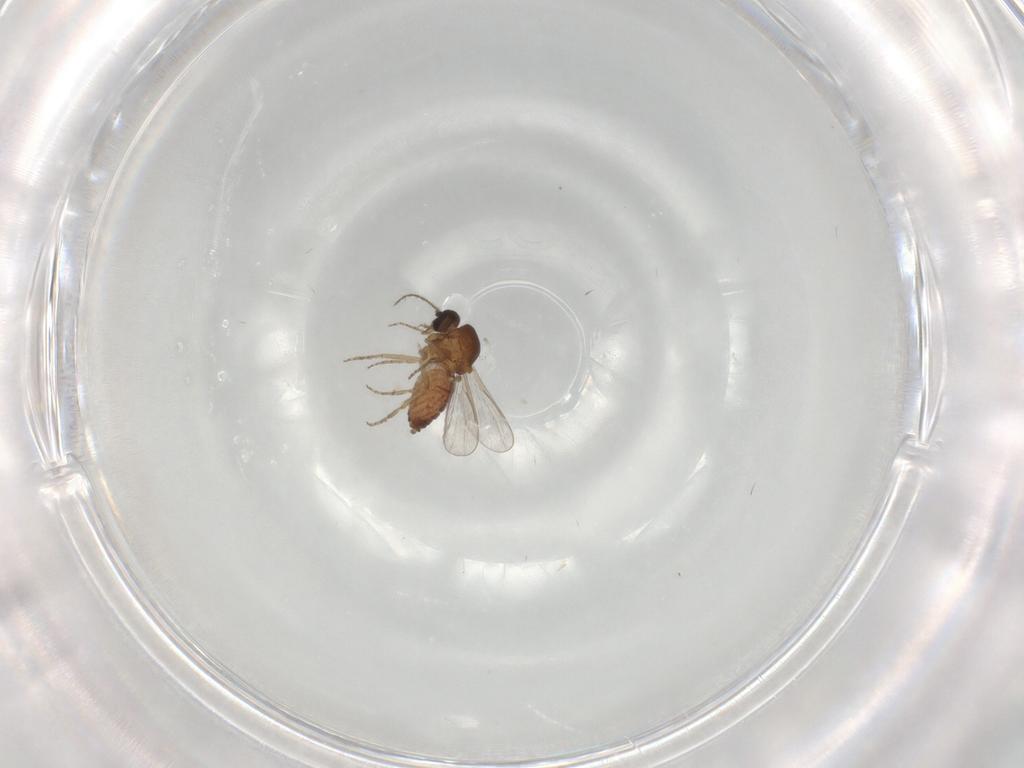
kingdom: Animalia
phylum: Arthropoda
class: Insecta
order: Diptera
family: Ceratopogonidae
